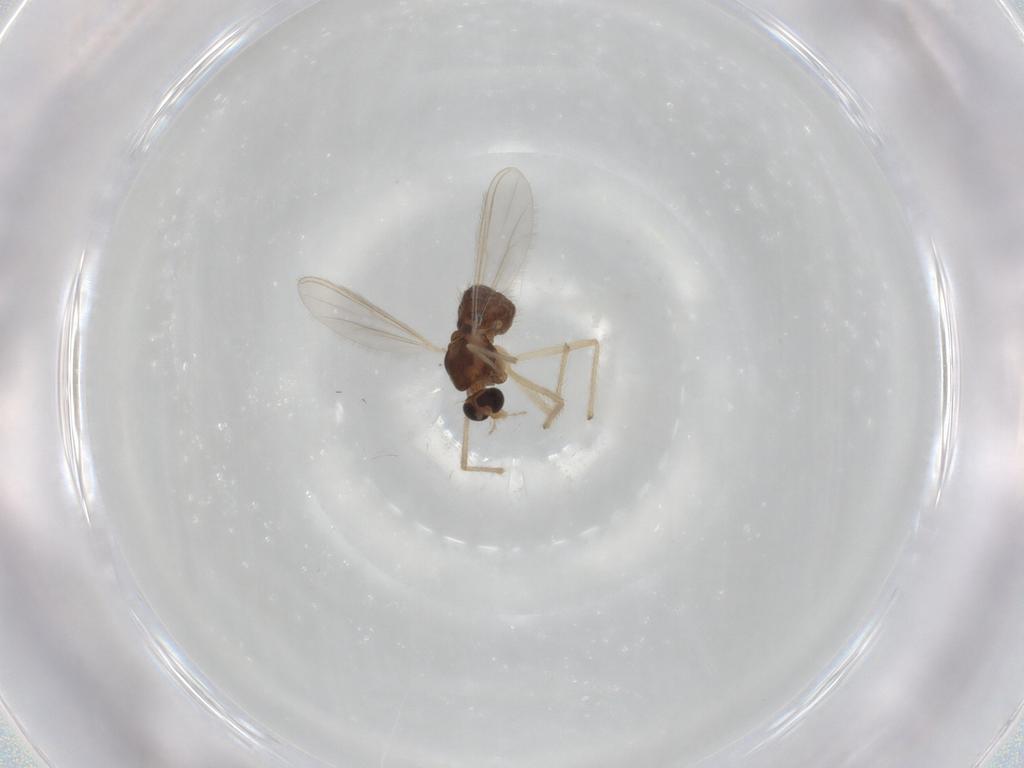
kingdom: Animalia
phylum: Arthropoda
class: Insecta
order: Diptera
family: Chironomidae
